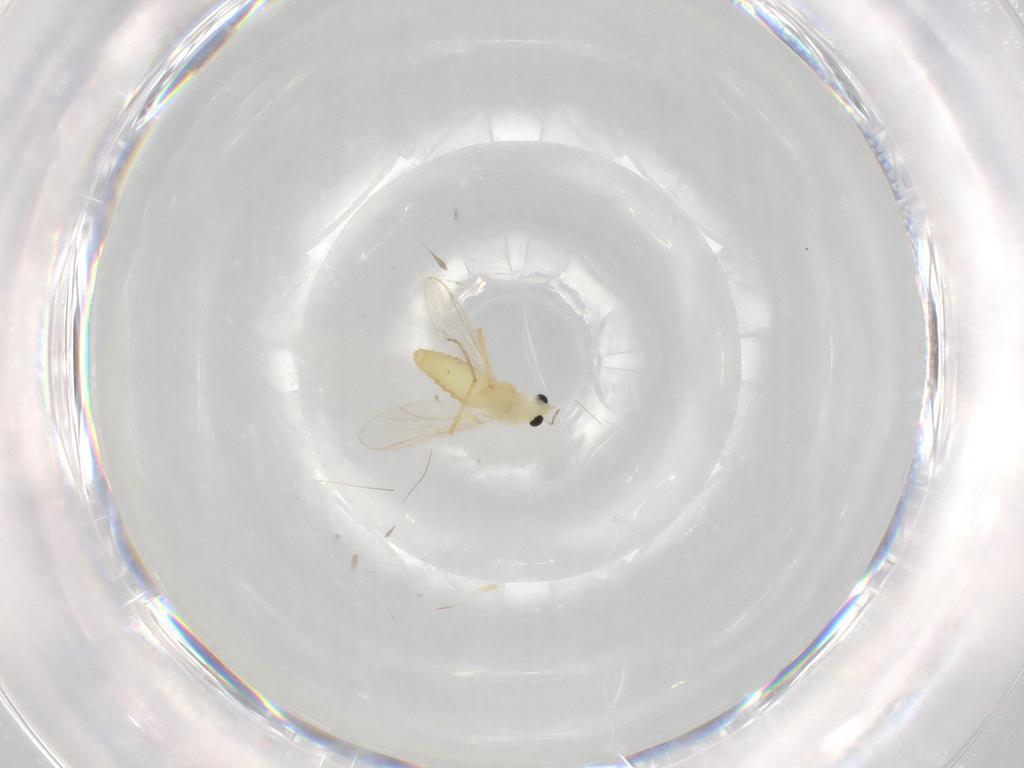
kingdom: Animalia
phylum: Arthropoda
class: Insecta
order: Diptera
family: Chironomidae
